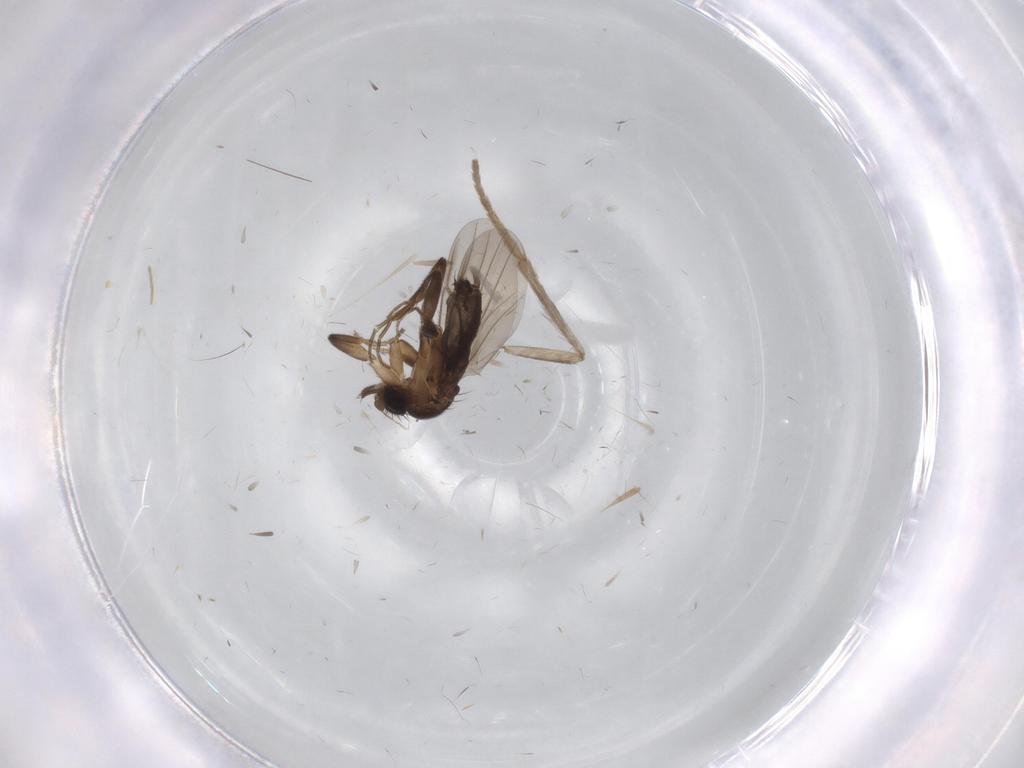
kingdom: Animalia
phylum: Arthropoda
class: Insecta
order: Diptera
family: Psychodidae
